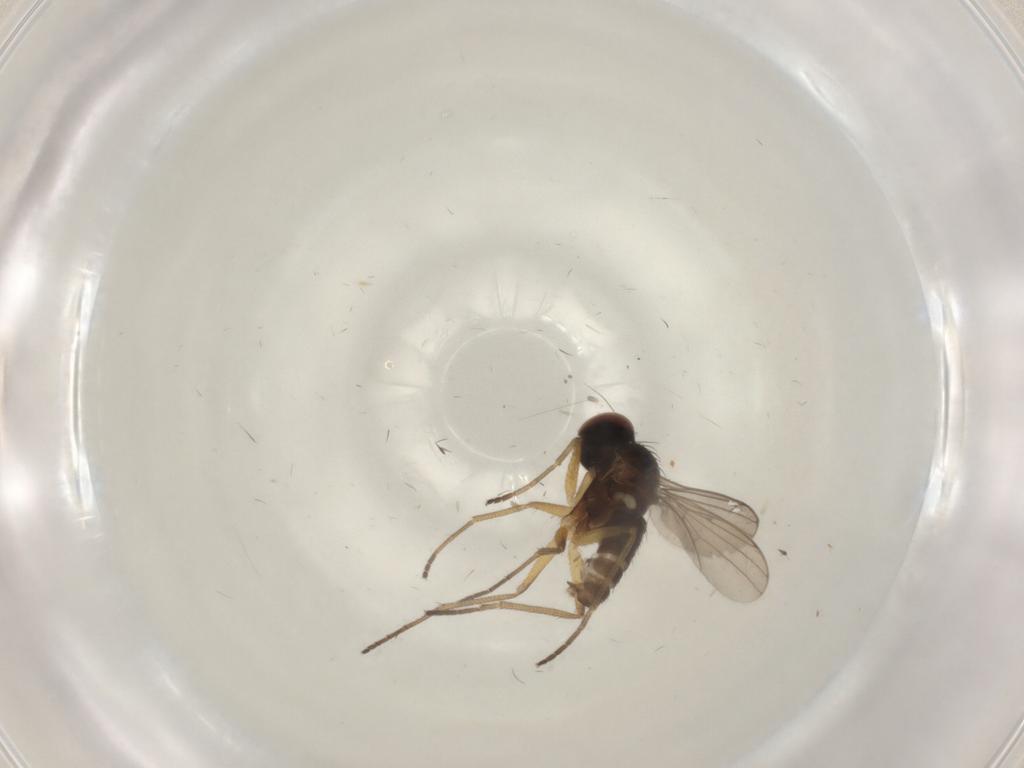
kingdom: Animalia
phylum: Arthropoda
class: Insecta
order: Diptera
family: Dolichopodidae
